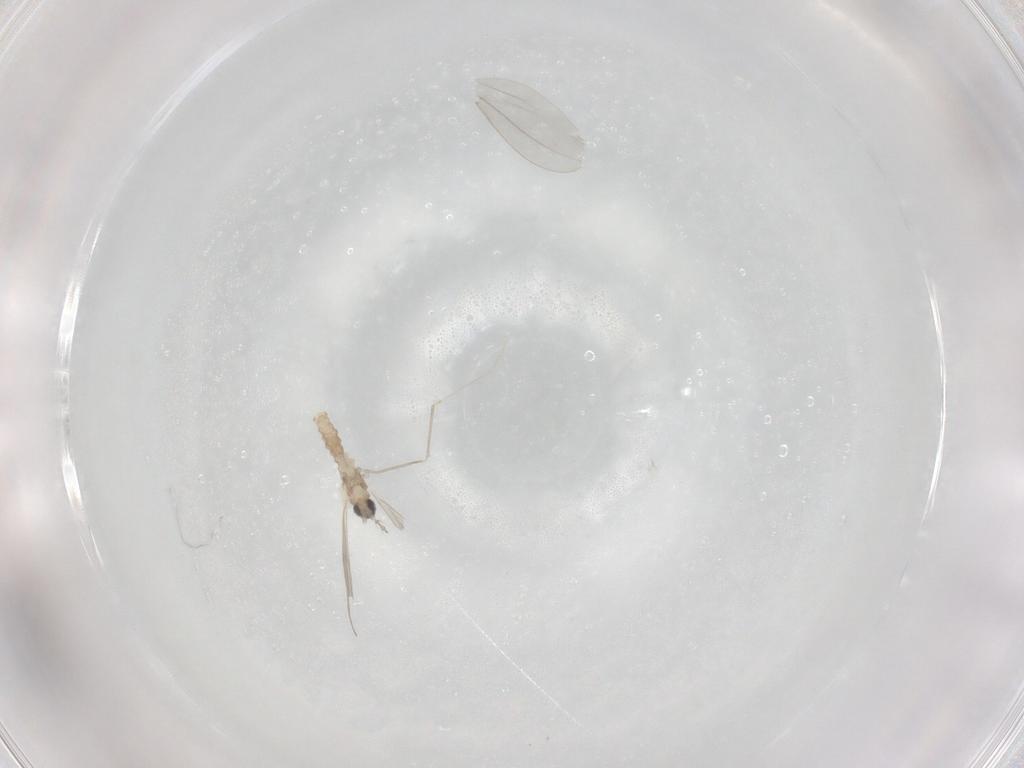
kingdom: Animalia
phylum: Arthropoda
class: Insecta
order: Diptera
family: Cecidomyiidae
